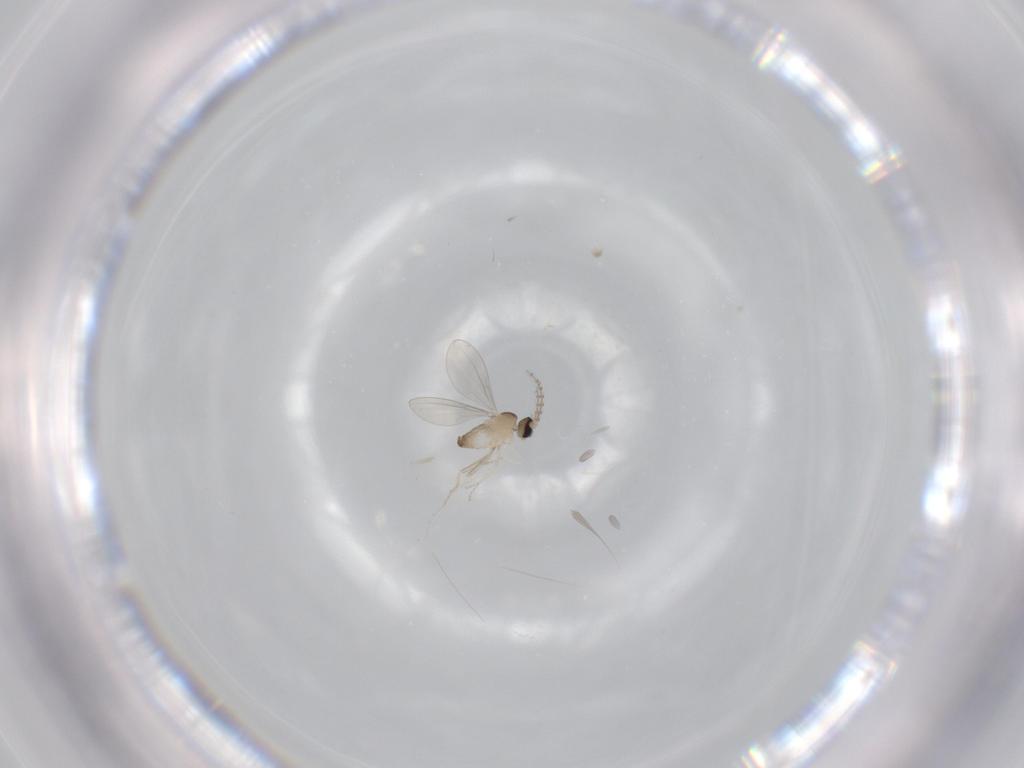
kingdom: Animalia
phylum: Arthropoda
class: Insecta
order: Diptera
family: Cecidomyiidae
